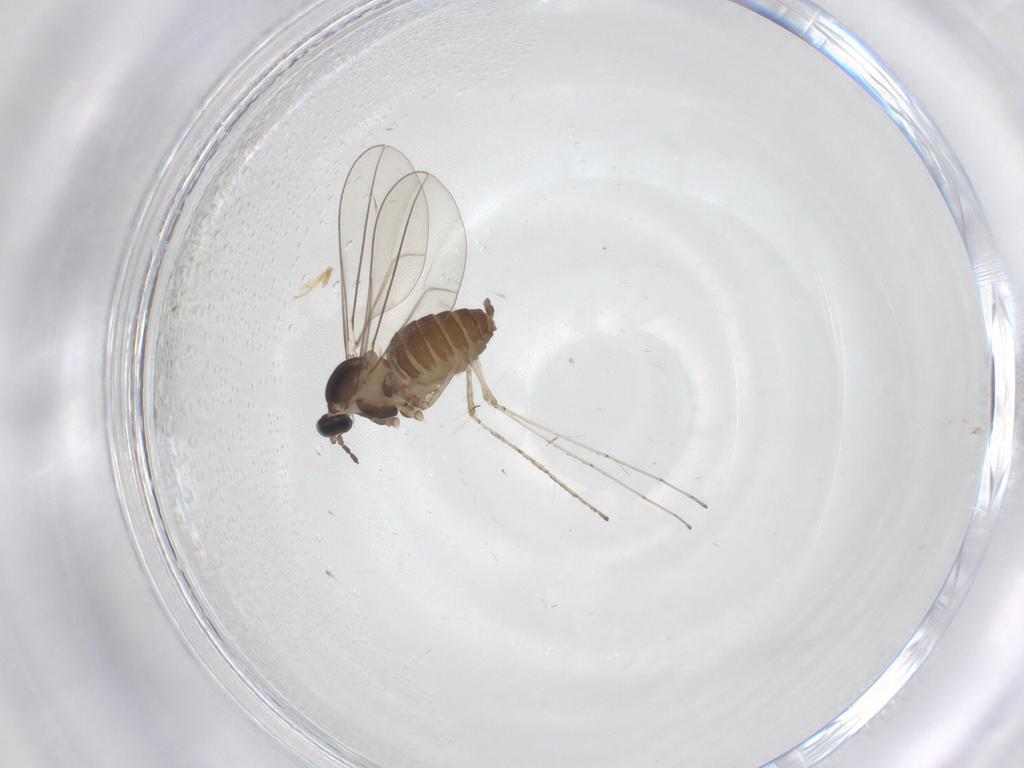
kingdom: Animalia
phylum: Arthropoda
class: Insecta
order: Diptera
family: Cecidomyiidae
